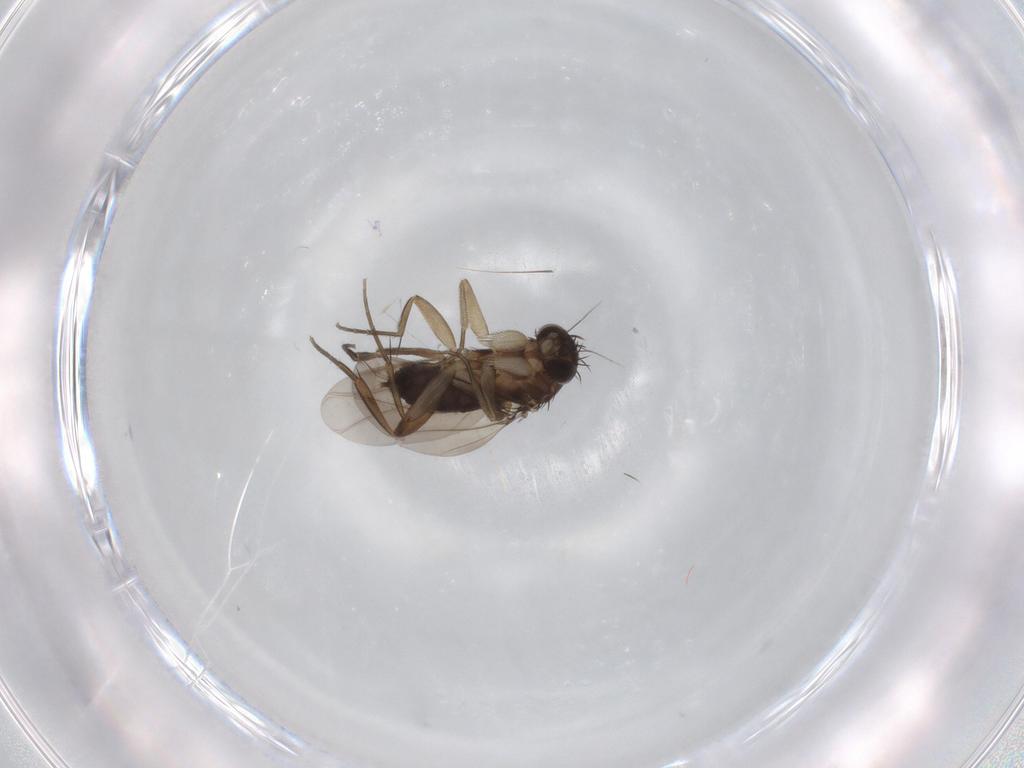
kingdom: Animalia
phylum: Arthropoda
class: Insecta
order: Diptera
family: Phoridae
